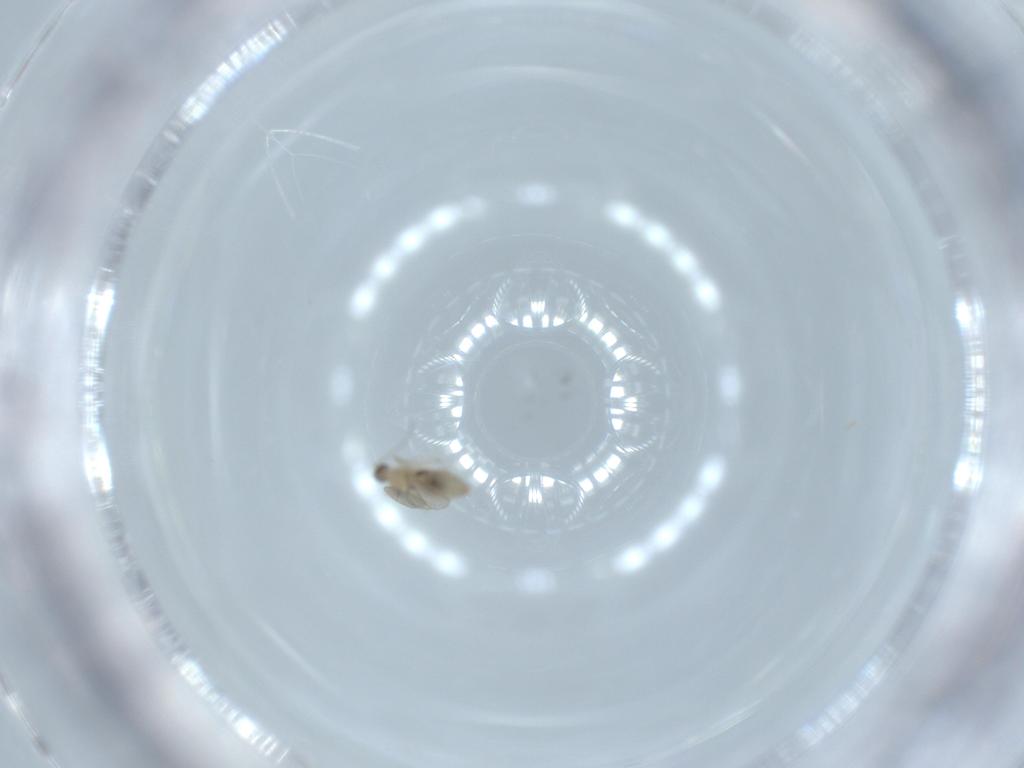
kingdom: Animalia
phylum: Arthropoda
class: Insecta
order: Diptera
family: Cecidomyiidae
